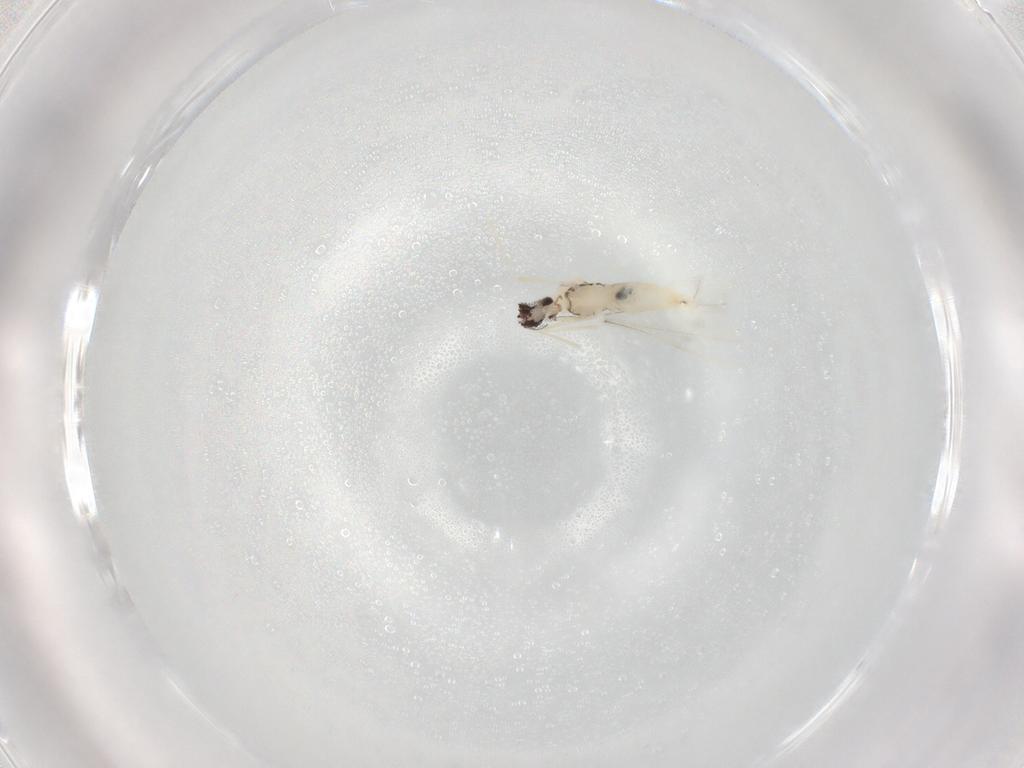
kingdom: Animalia
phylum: Arthropoda
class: Insecta
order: Diptera
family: Cecidomyiidae
